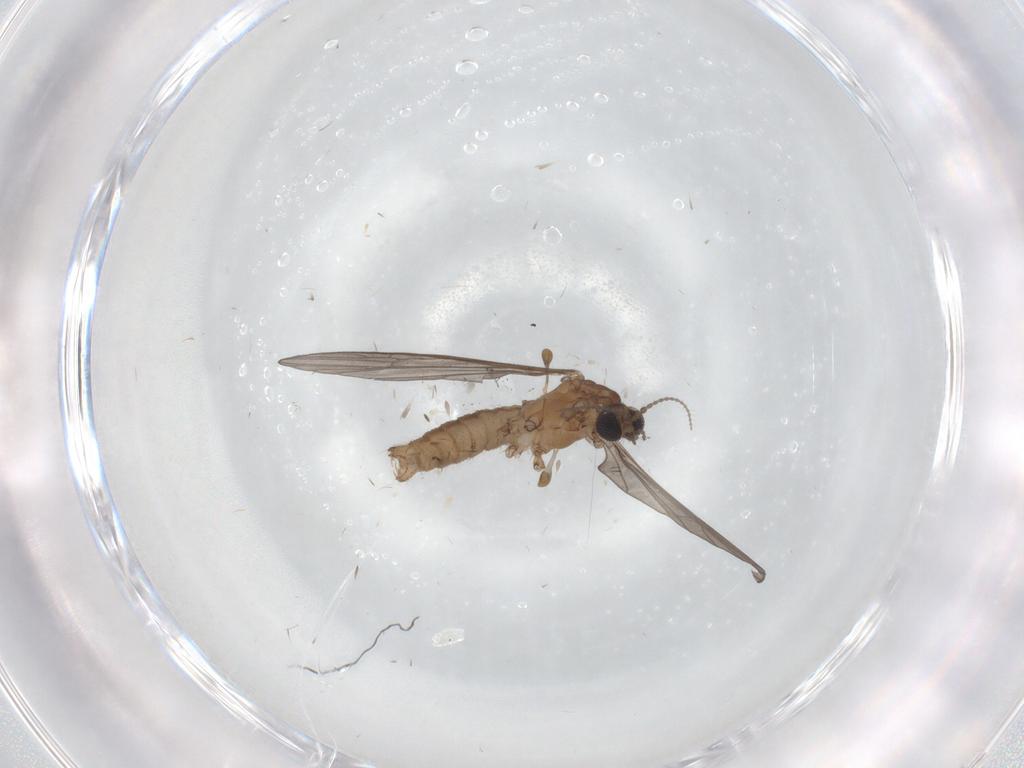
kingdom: Animalia
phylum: Arthropoda
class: Insecta
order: Diptera
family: Limoniidae
